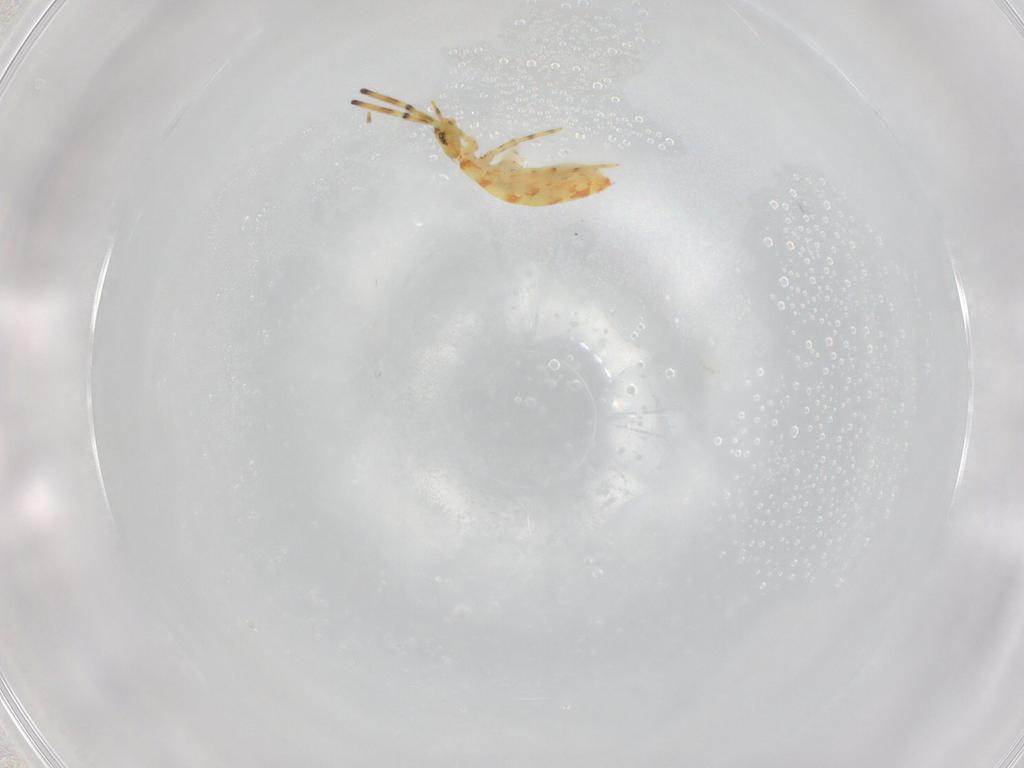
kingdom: Animalia
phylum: Arthropoda
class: Insecta
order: Diptera
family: Sciaridae
